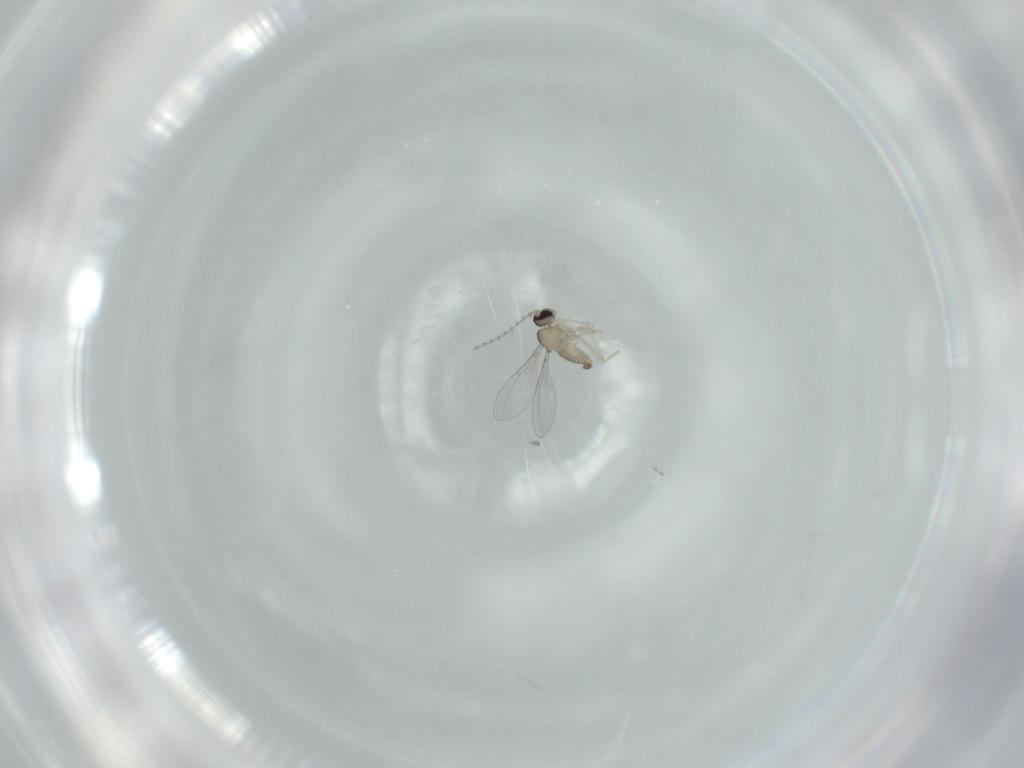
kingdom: Animalia
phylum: Arthropoda
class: Insecta
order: Diptera
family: Cecidomyiidae
